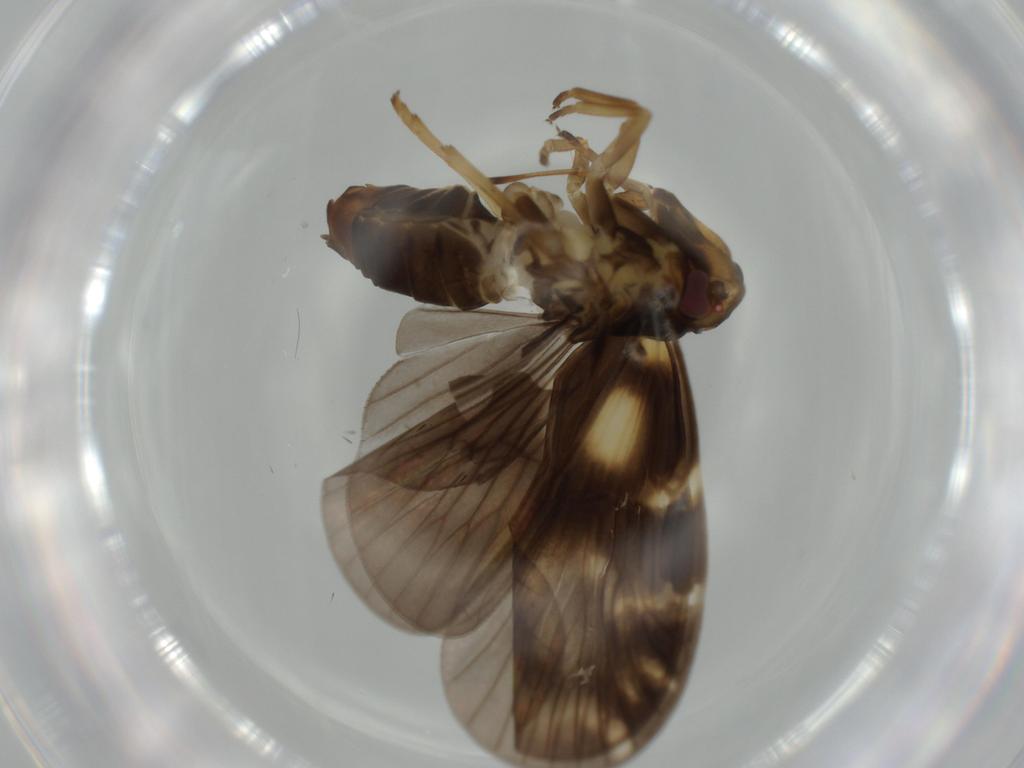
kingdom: Animalia
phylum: Arthropoda
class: Insecta
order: Hemiptera
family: Cixiidae
